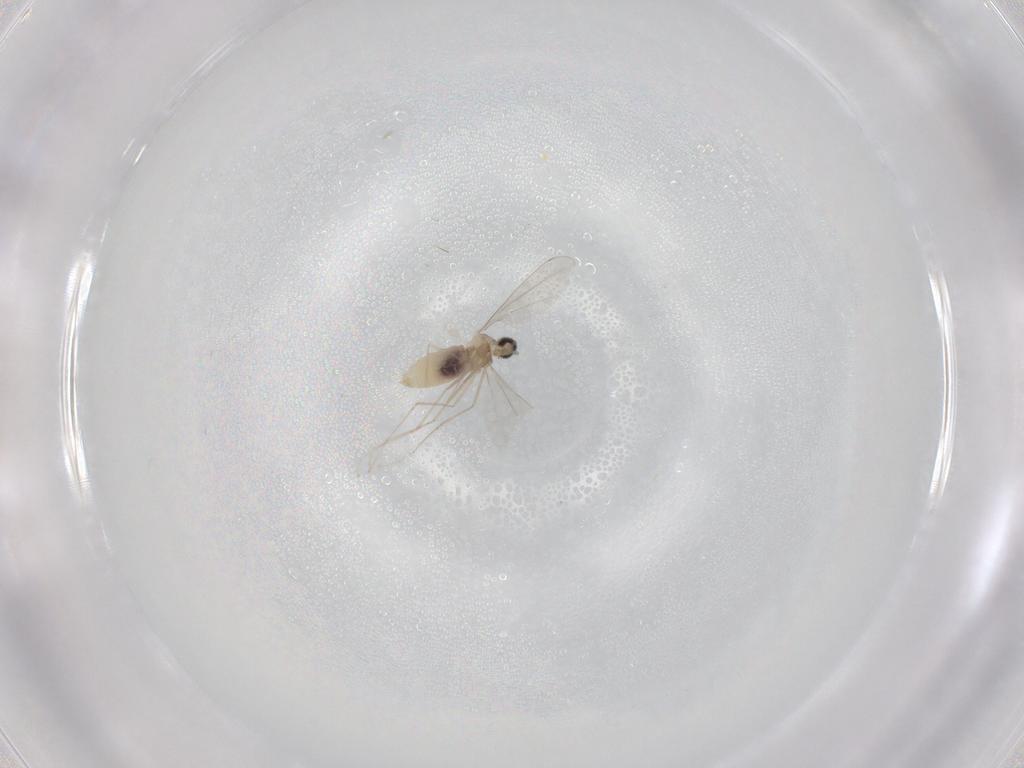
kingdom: Animalia
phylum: Arthropoda
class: Insecta
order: Diptera
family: Cecidomyiidae
